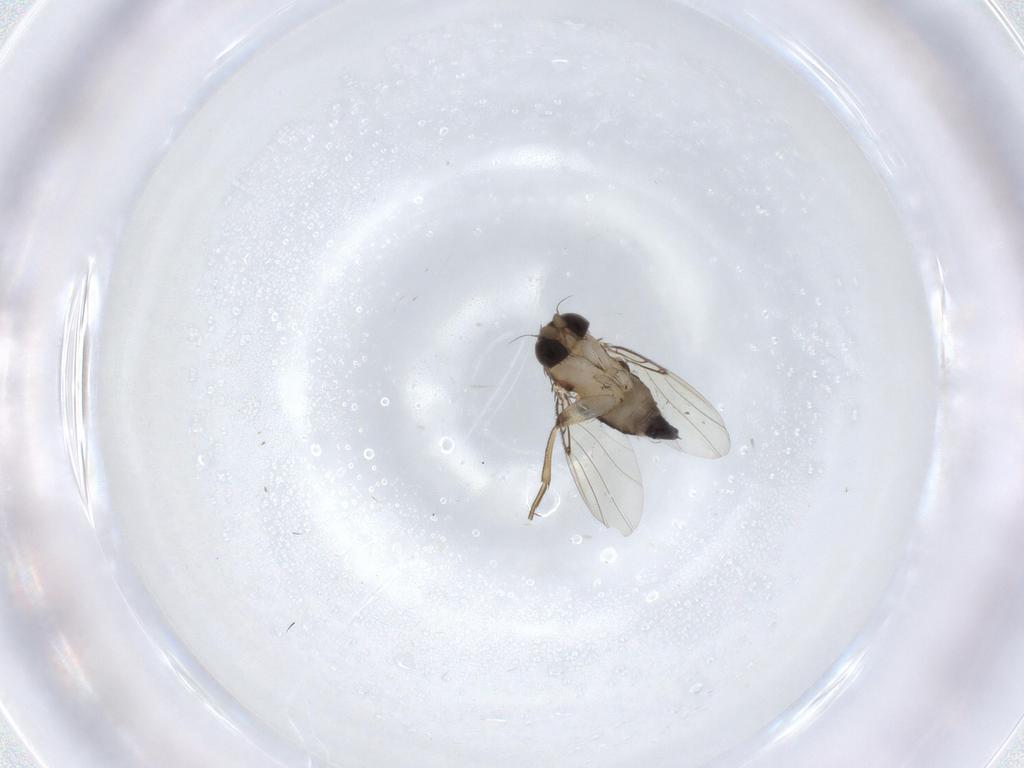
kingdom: Animalia
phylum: Arthropoda
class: Insecta
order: Diptera
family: Phoridae
